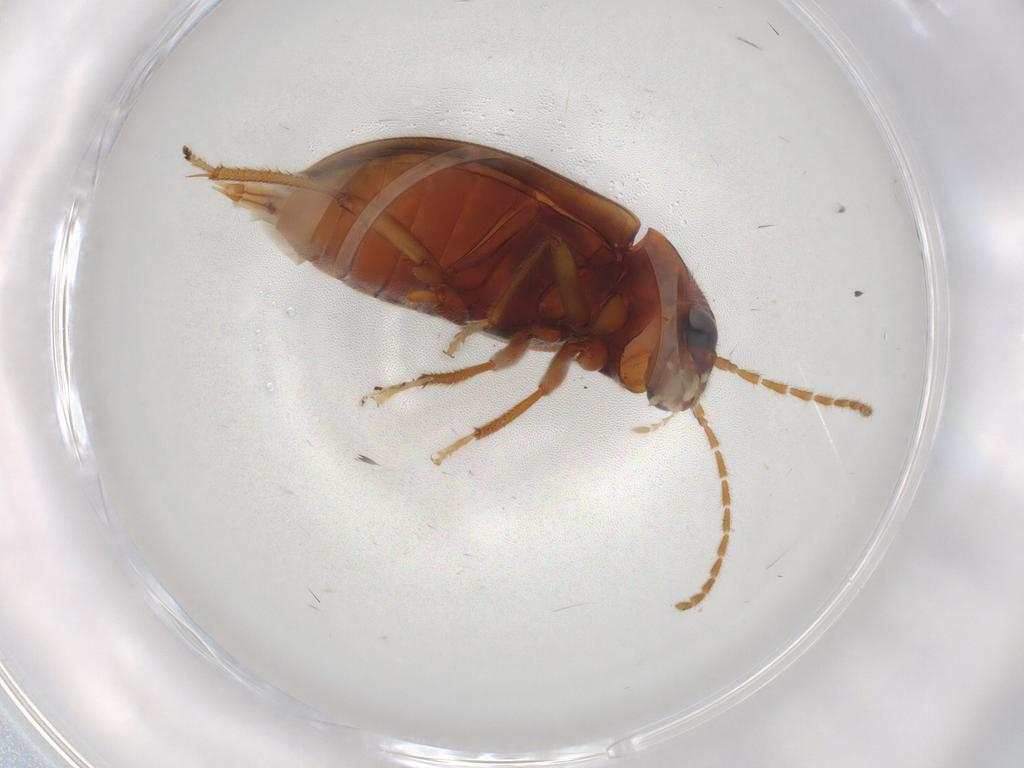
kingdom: Animalia
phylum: Arthropoda
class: Insecta
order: Coleoptera
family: Ptilodactylidae
